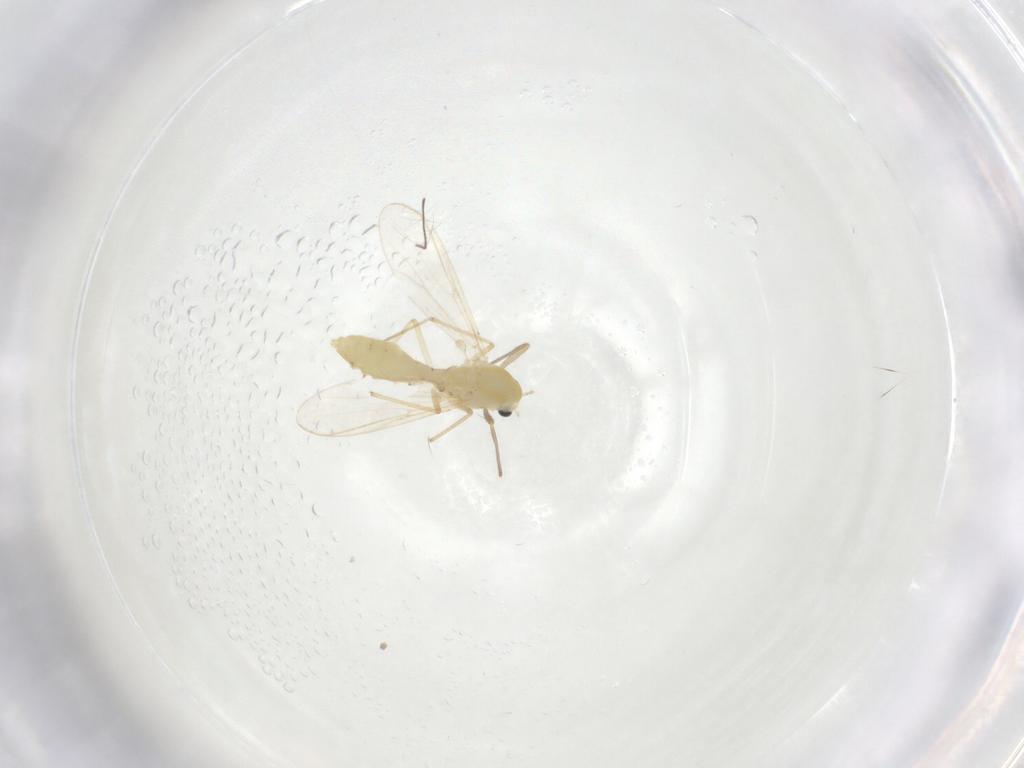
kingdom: Animalia
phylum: Arthropoda
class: Insecta
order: Diptera
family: Chironomidae
